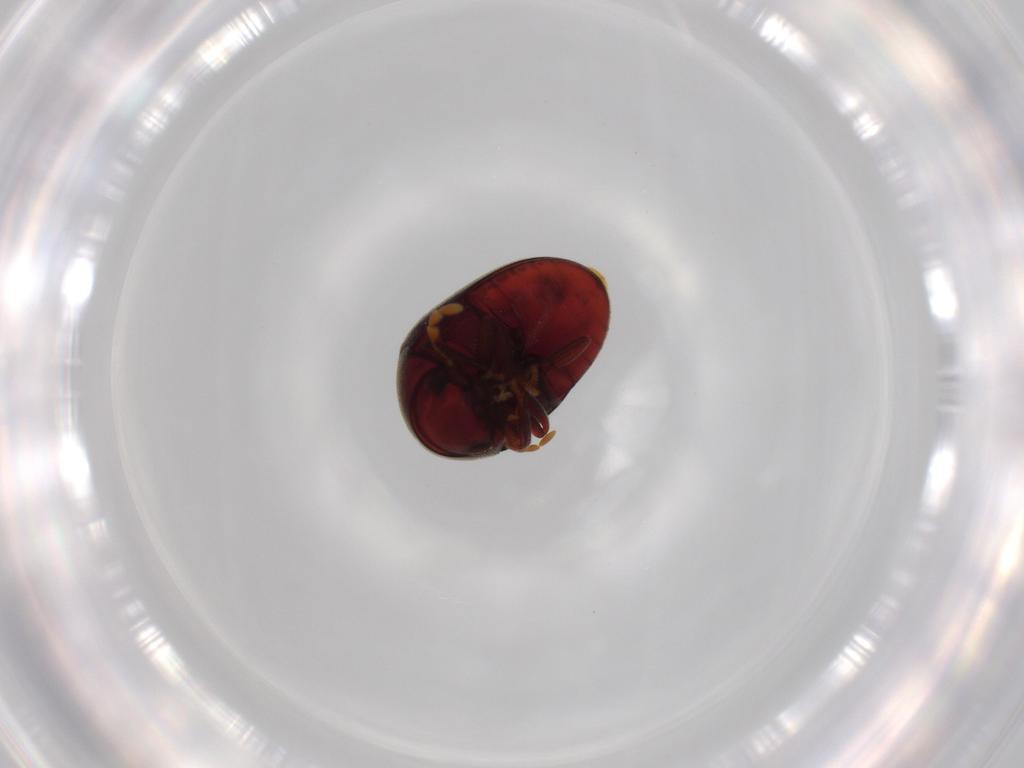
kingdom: Animalia
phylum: Arthropoda
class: Insecta
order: Coleoptera
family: Ptinidae
